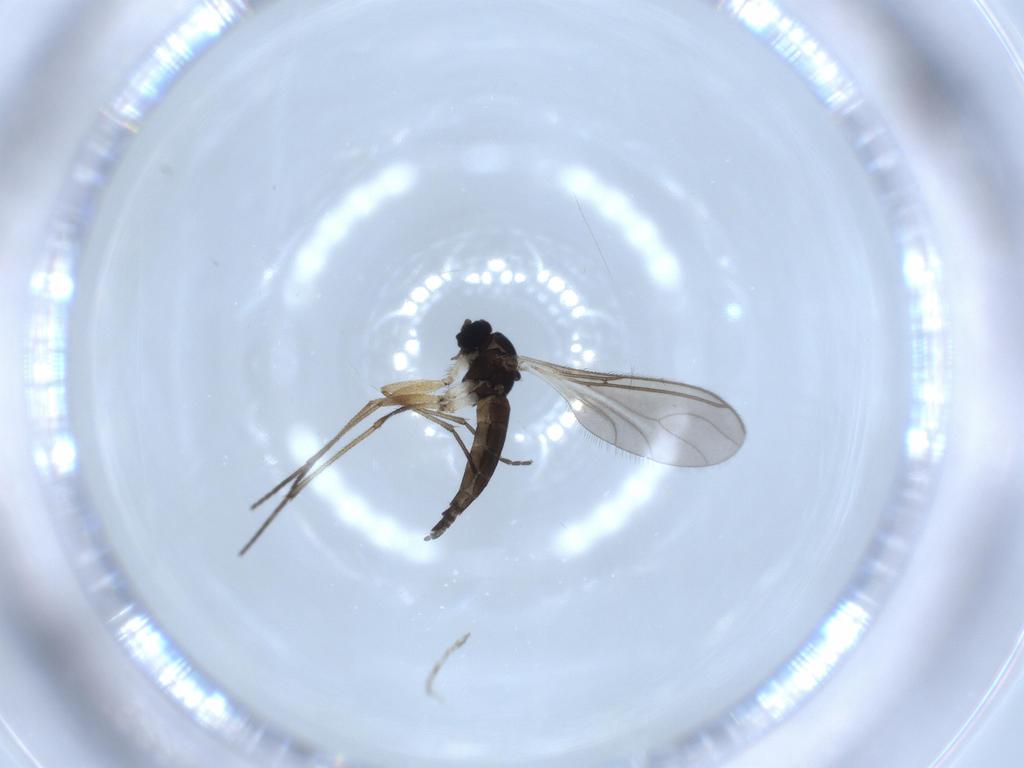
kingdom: Animalia
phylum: Arthropoda
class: Insecta
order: Diptera
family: Sciaridae
